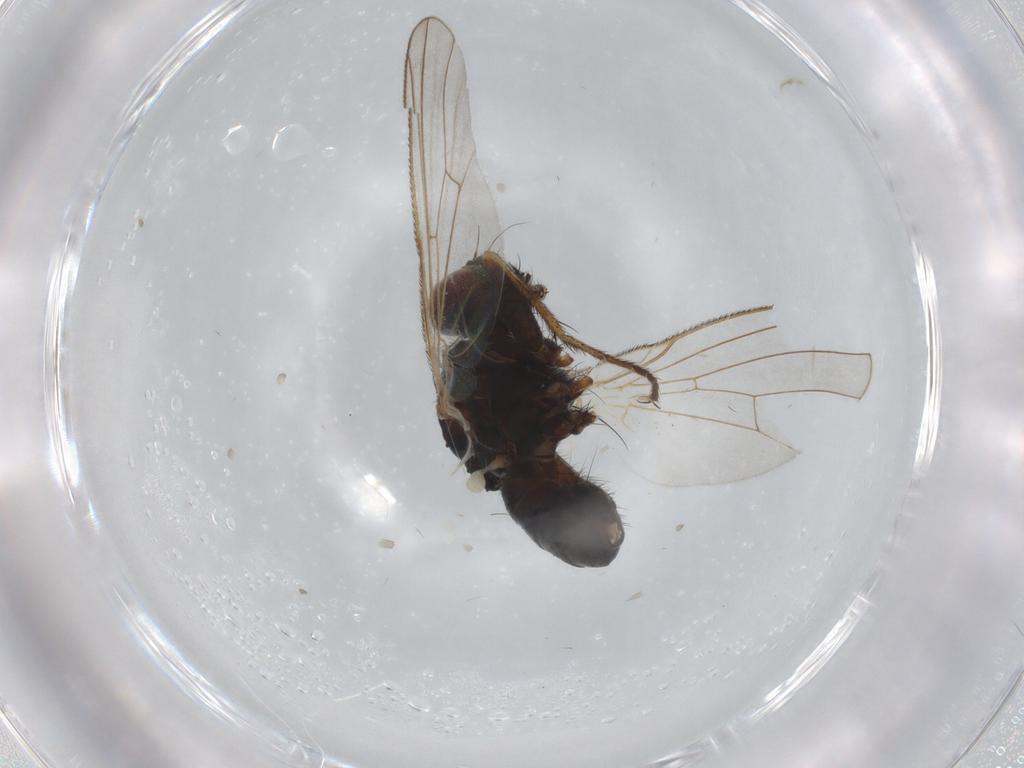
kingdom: Animalia
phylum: Arthropoda
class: Insecta
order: Diptera
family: Muscidae
